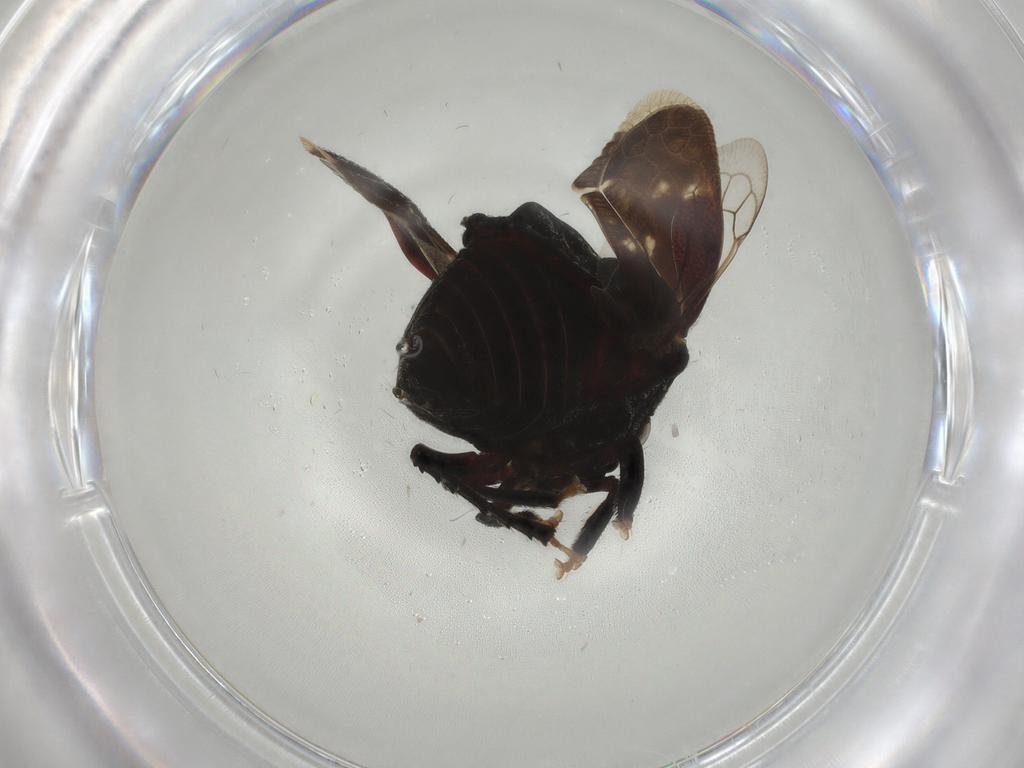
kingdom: Animalia
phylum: Arthropoda
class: Insecta
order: Hemiptera
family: Membracidae
